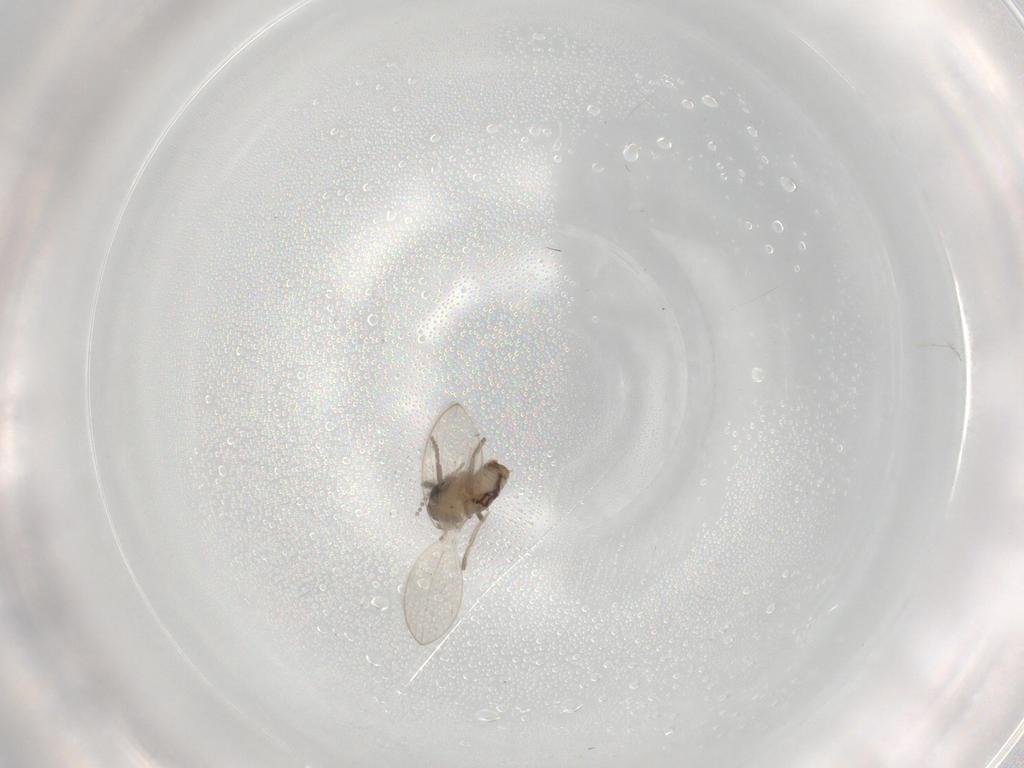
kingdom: Animalia
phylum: Arthropoda
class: Insecta
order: Diptera
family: Psychodidae
